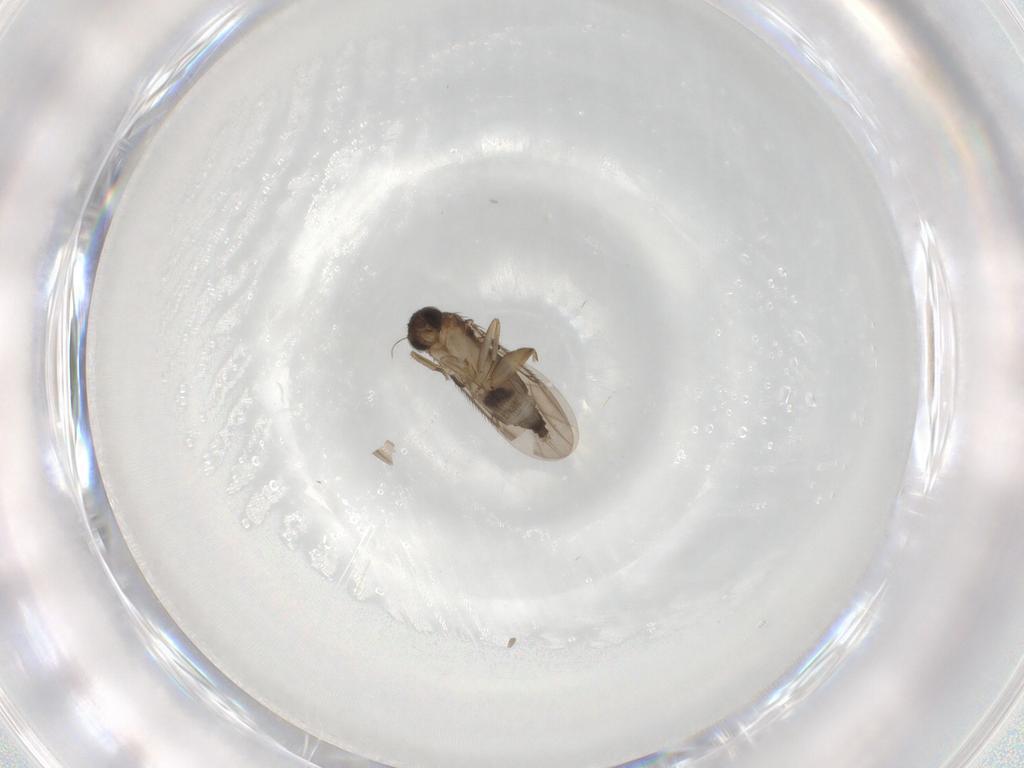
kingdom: Animalia
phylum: Arthropoda
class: Insecta
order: Diptera
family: Phoridae
